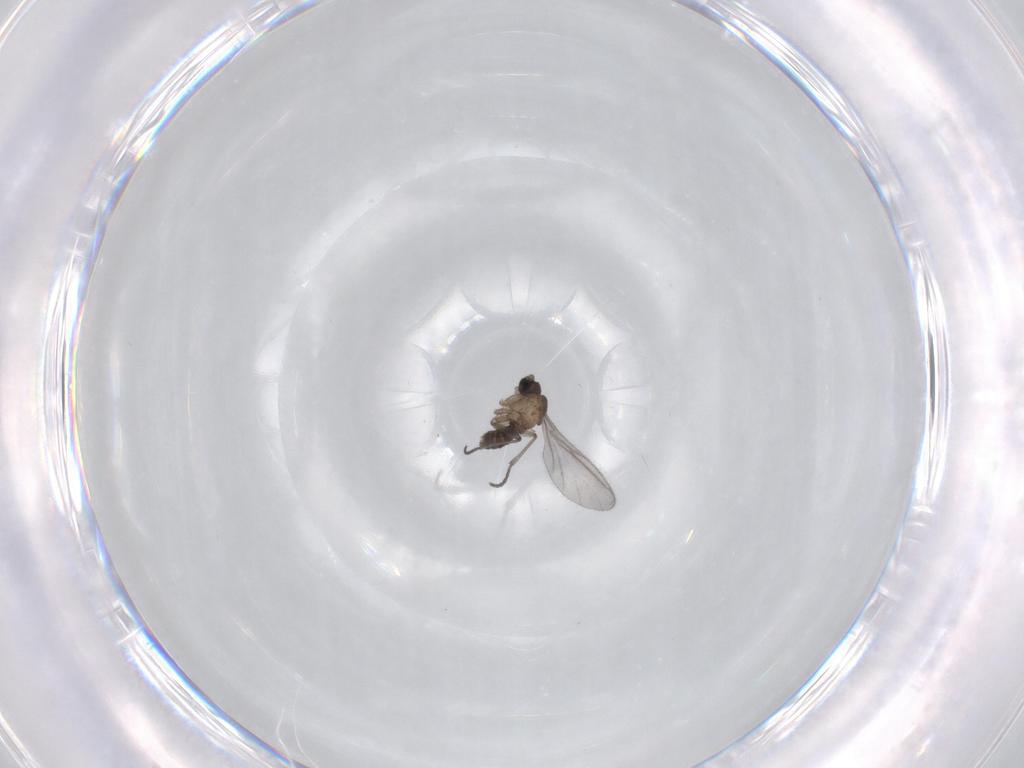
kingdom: Animalia
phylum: Arthropoda
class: Insecta
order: Diptera
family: Sciaridae
